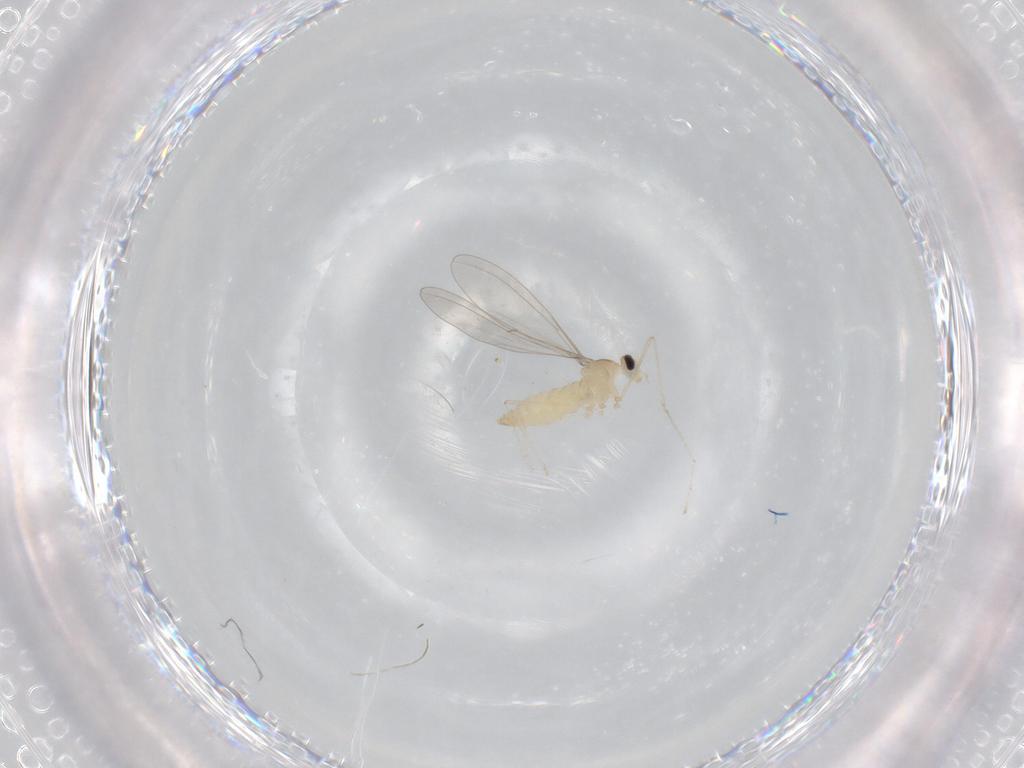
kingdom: Animalia
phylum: Arthropoda
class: Insecta
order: Diptera
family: Cecidomyiidae
